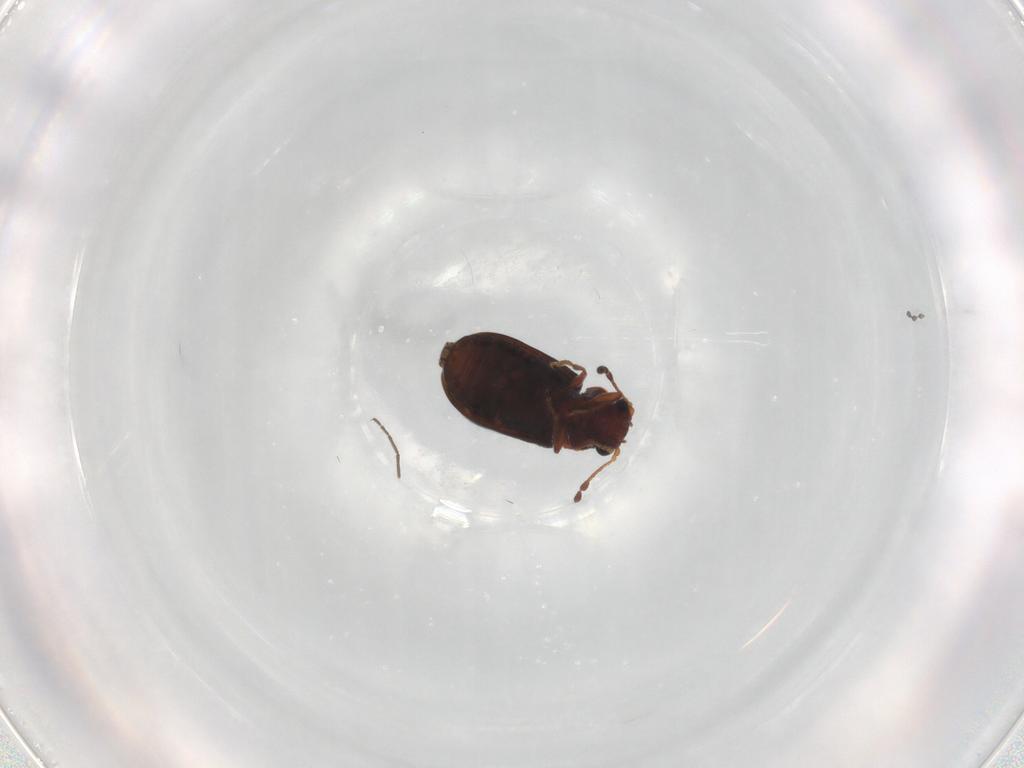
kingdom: Animalia
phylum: Arthropoda
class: Insecta
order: Coleoptera
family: Ptinidae
